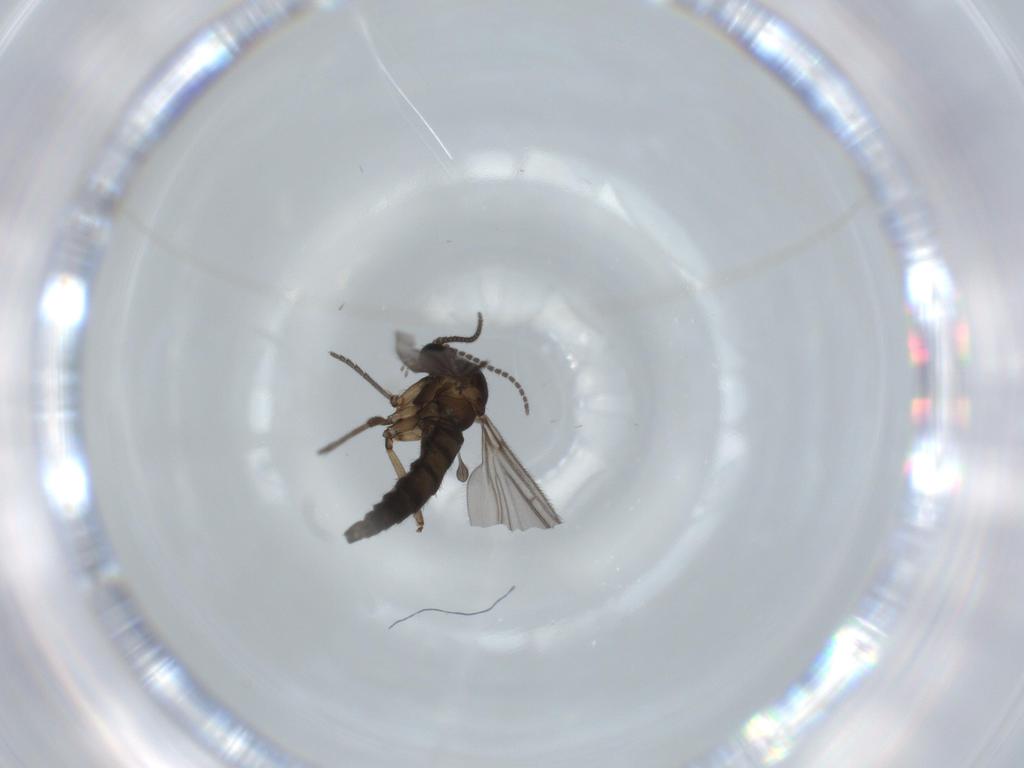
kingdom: Animalia
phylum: Arthropoda
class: Insecta
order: Diptera
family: Sciaridae
